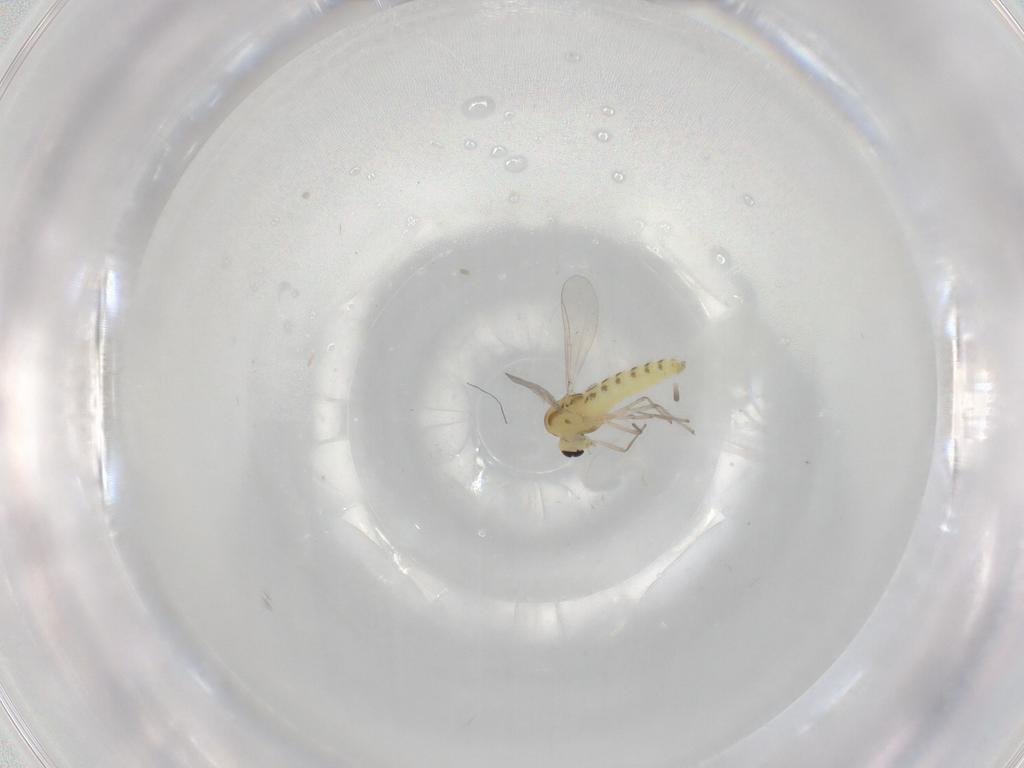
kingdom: Animalia
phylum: Arthropoda
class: Insecta
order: Diptera
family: Chironomidae
